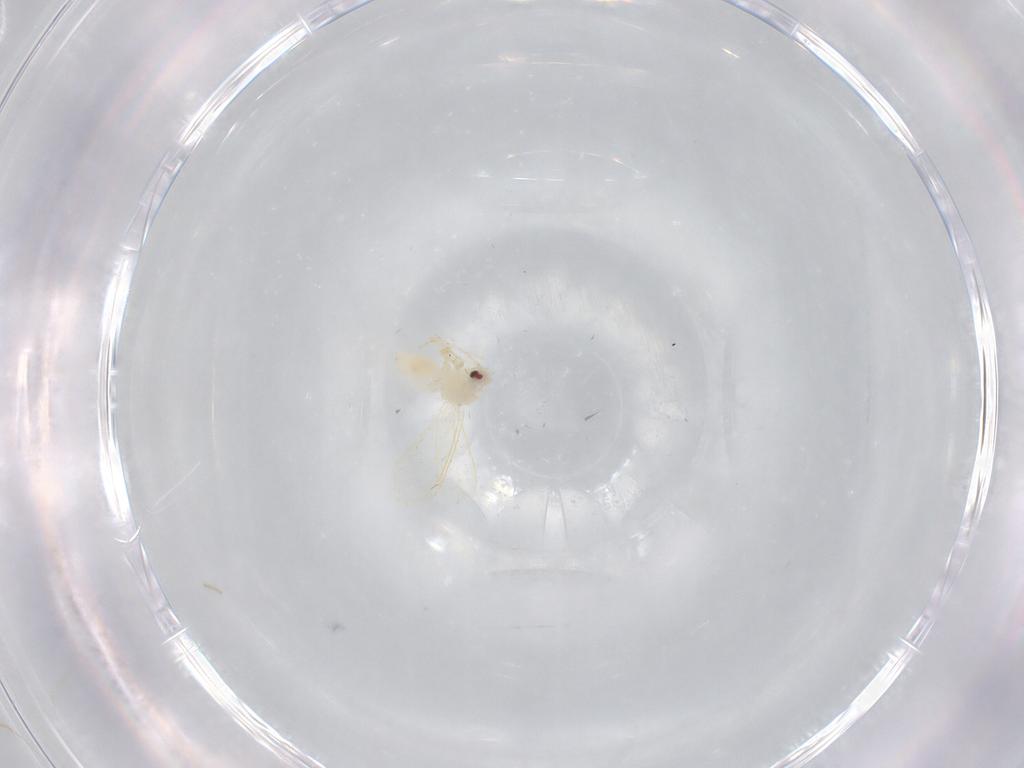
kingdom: Animalia
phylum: Arthropoda
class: Insecta
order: Hemiptera
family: Aleyrodidae
